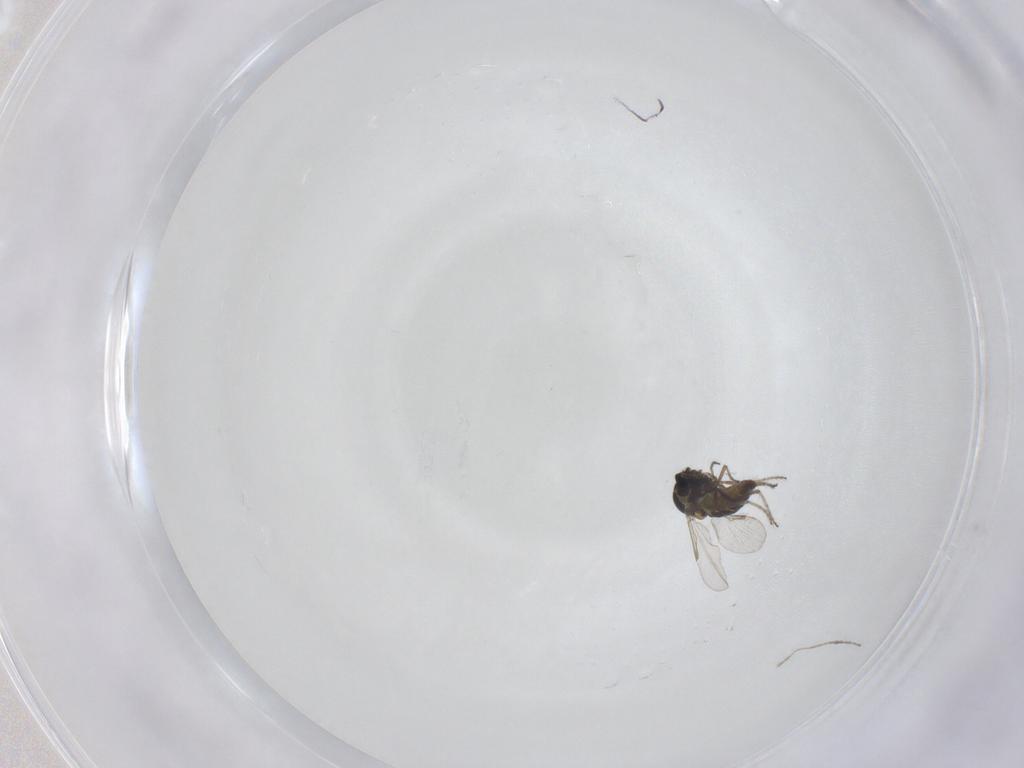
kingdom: Animalia
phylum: Arthropoda
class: Insecta
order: Diptera
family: Ceratopogonidae
